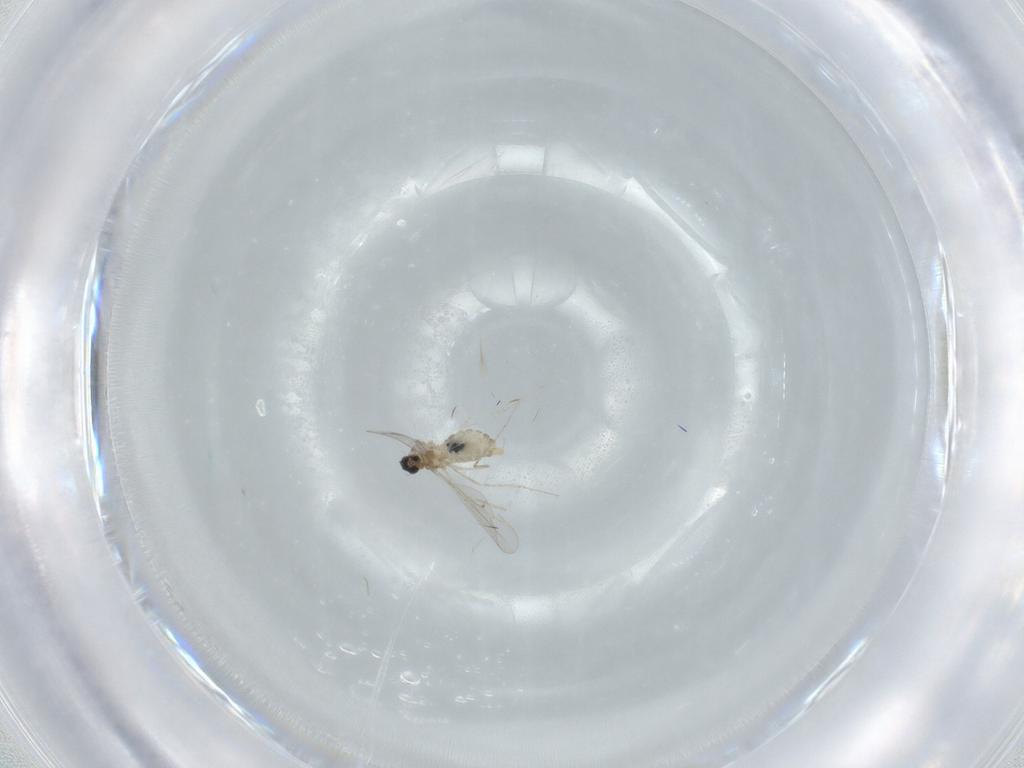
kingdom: Animalia
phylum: Arthropoda
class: Insecta
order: Diptera
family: Cecidomyiidae
